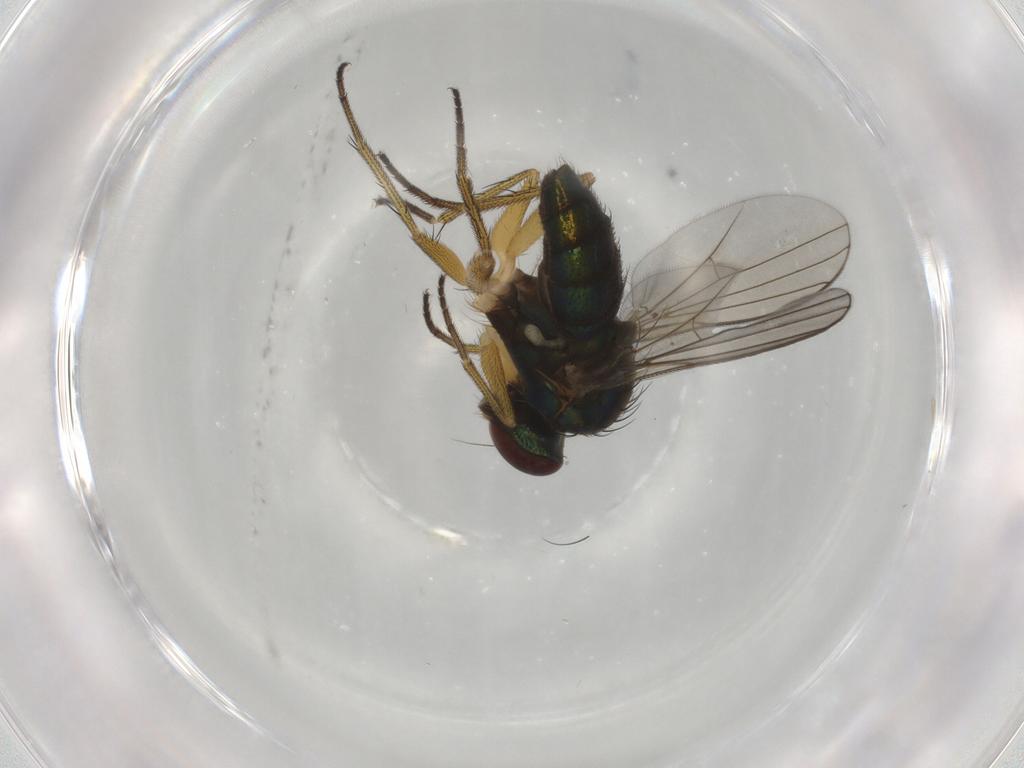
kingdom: Animalia
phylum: Arthropoda
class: Insecta
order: Diptera
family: Dolichopodidae
